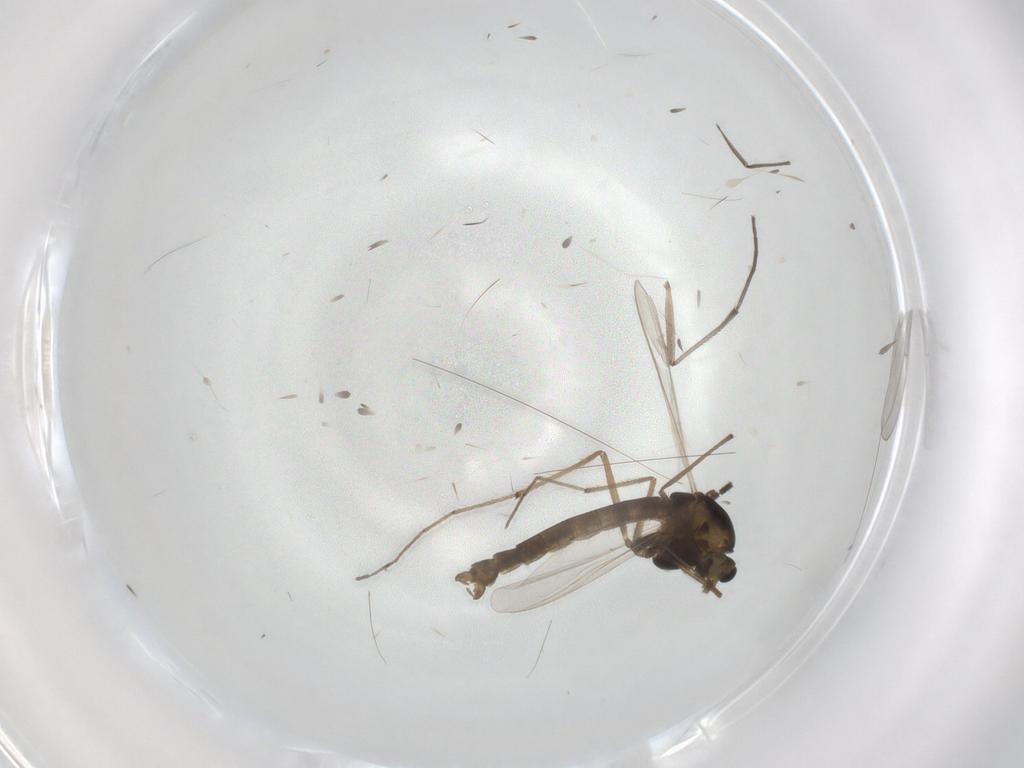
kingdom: Animalia
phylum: Arthropoda
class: Insecta
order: Diptera
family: Sciaridae
